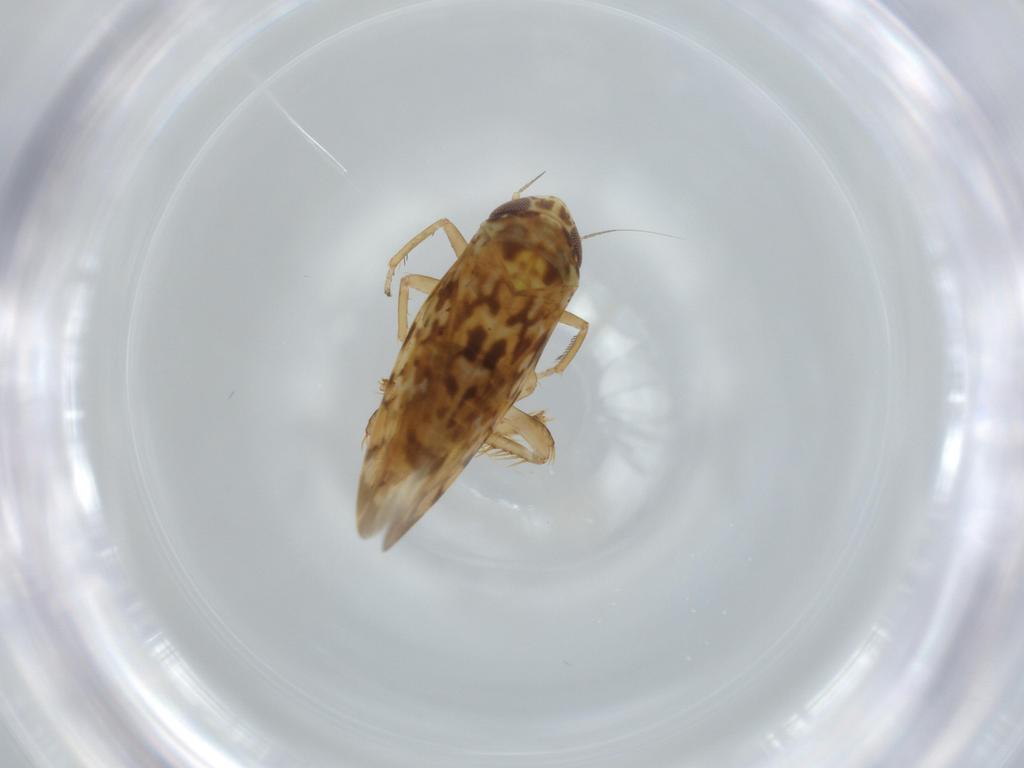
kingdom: Animalia
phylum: Arthropoda
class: Insecta
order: Hemiptera
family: Cicadellidae
